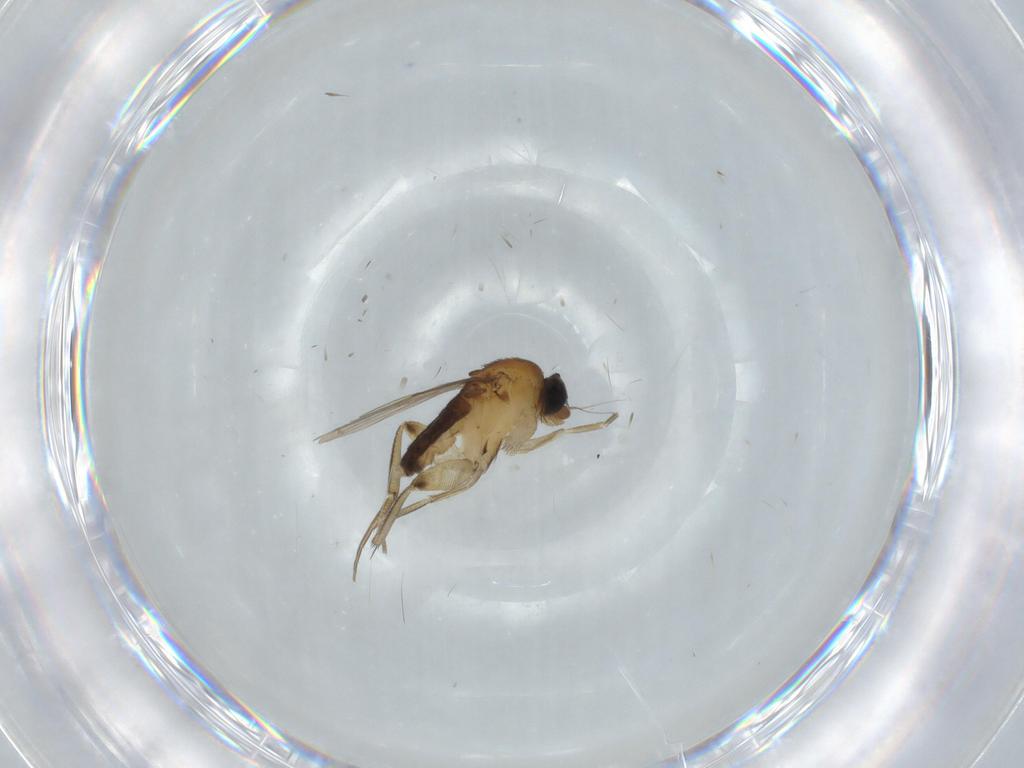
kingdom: Animalia
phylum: Arthropoda
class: Insecta
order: Diptera
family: Phoridae
